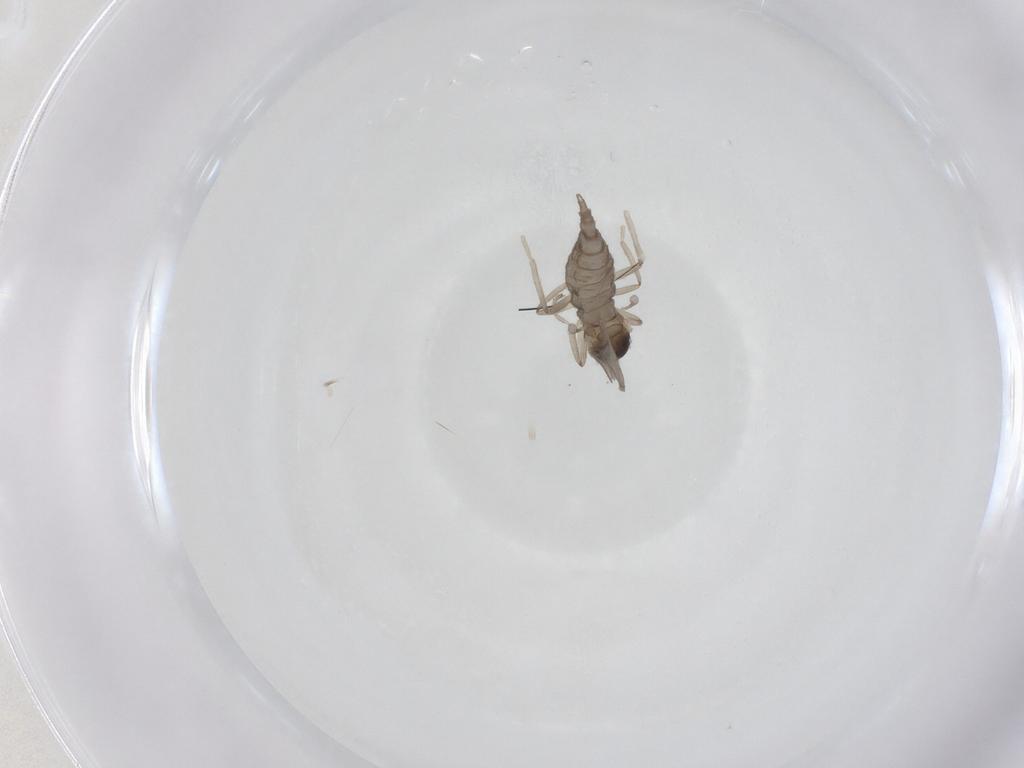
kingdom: Animalia
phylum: Arthropoda
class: Insecta
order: Diptera
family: Cecidomyiidae
